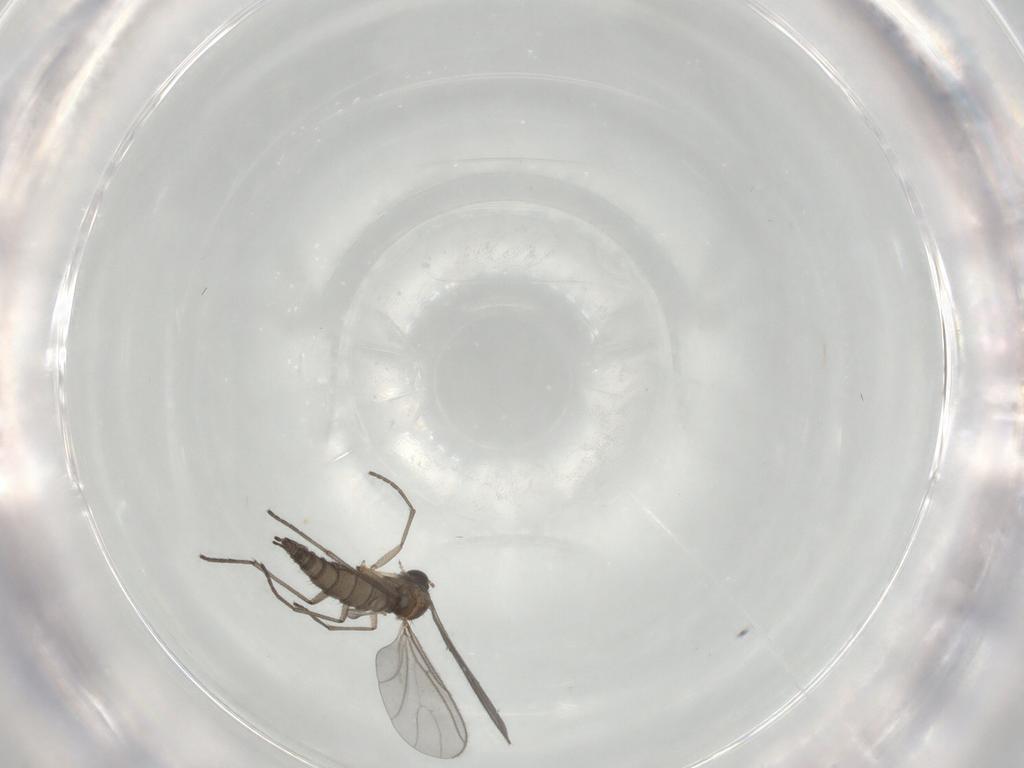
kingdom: Animalia
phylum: Arthropoda
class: Insecta
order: Diptera
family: Sciaridae
